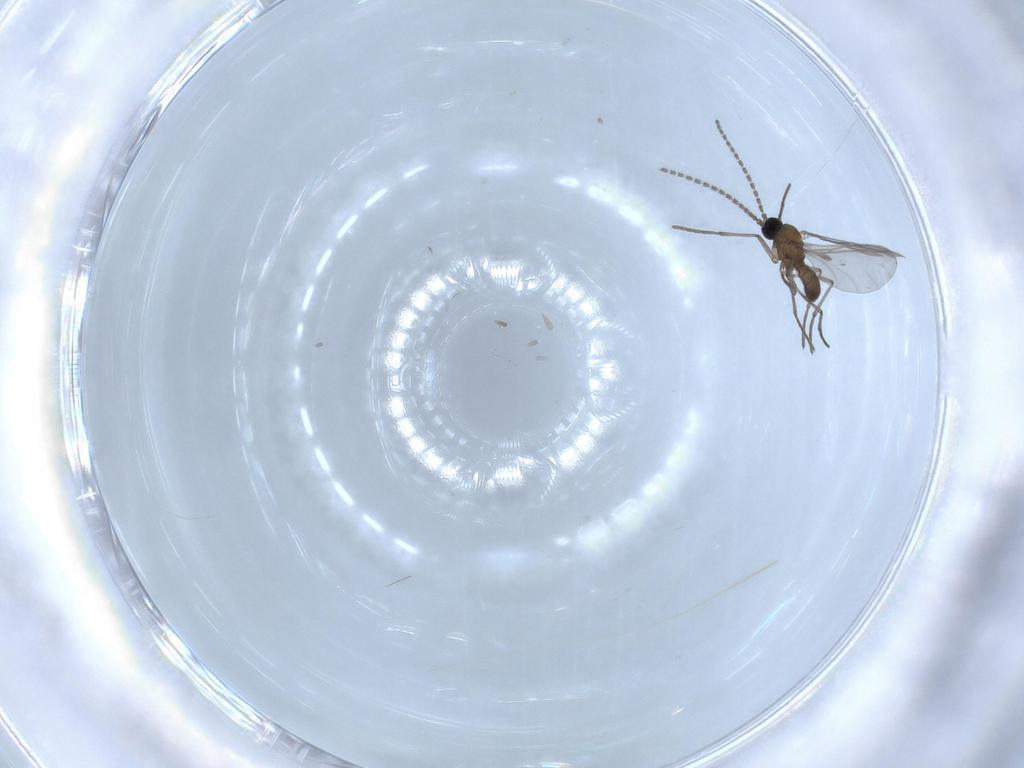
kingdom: Animalia
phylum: Arthropoda
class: Insecta
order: Diptera
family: Sciaridae
